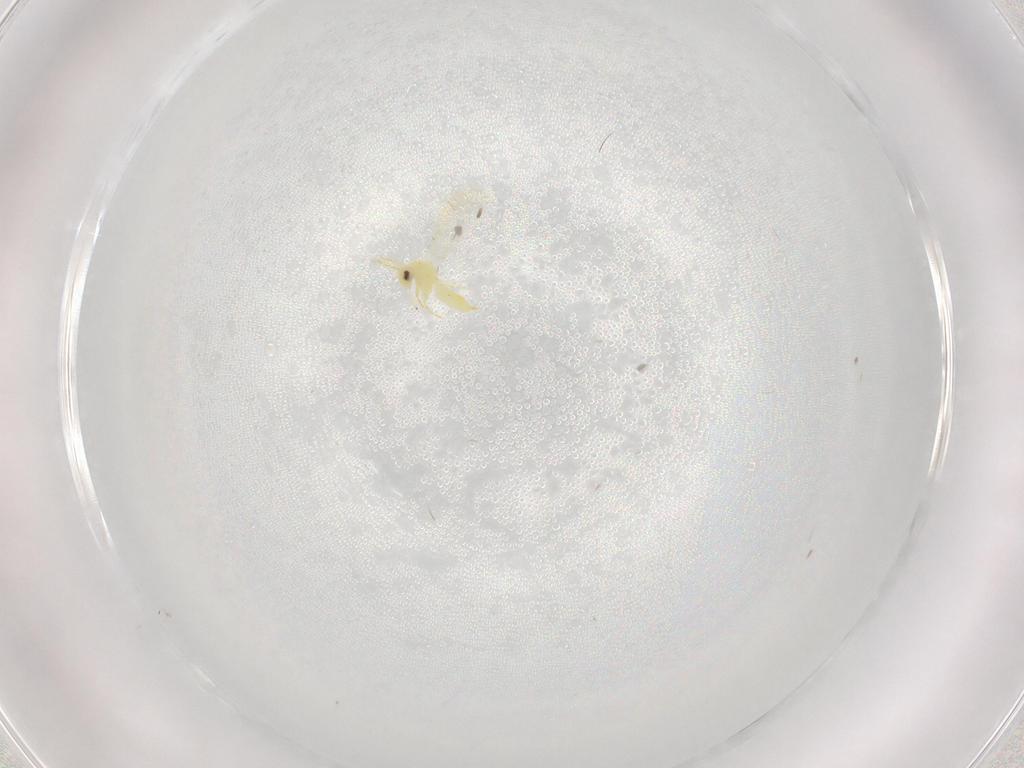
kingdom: Animalia
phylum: Arthropoda
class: Insecta
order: Hemiptera
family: Aleyrodidae
